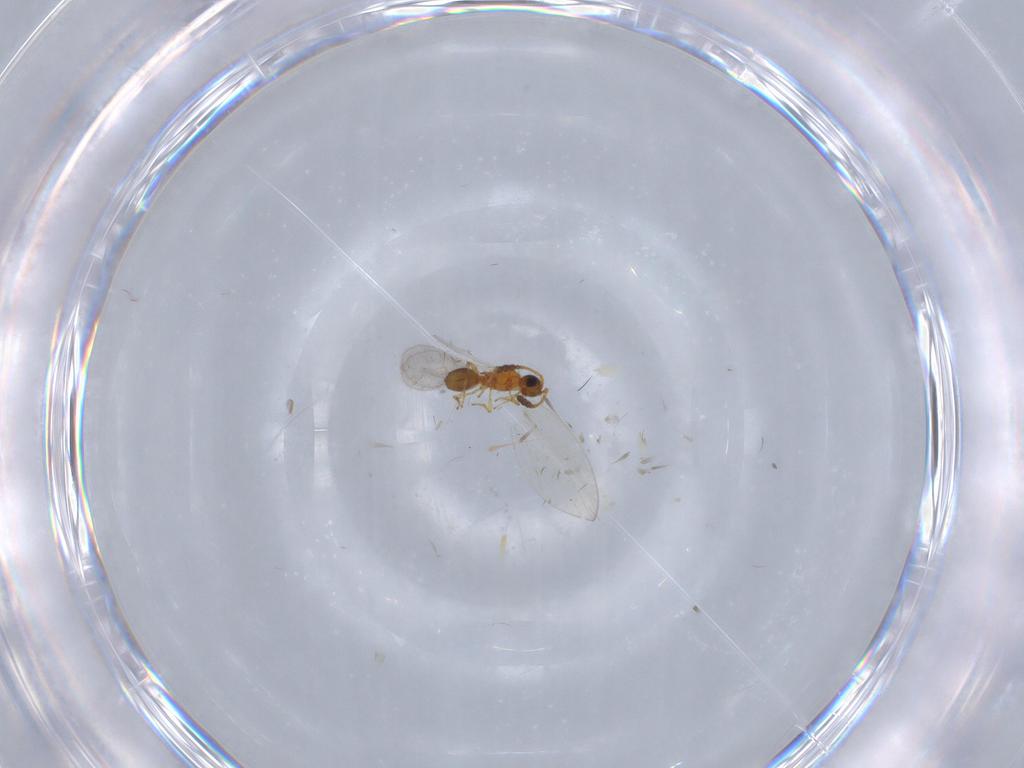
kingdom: Animalia
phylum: Arthropoda
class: Insecta
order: Hymenoptera
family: Diapriidae
